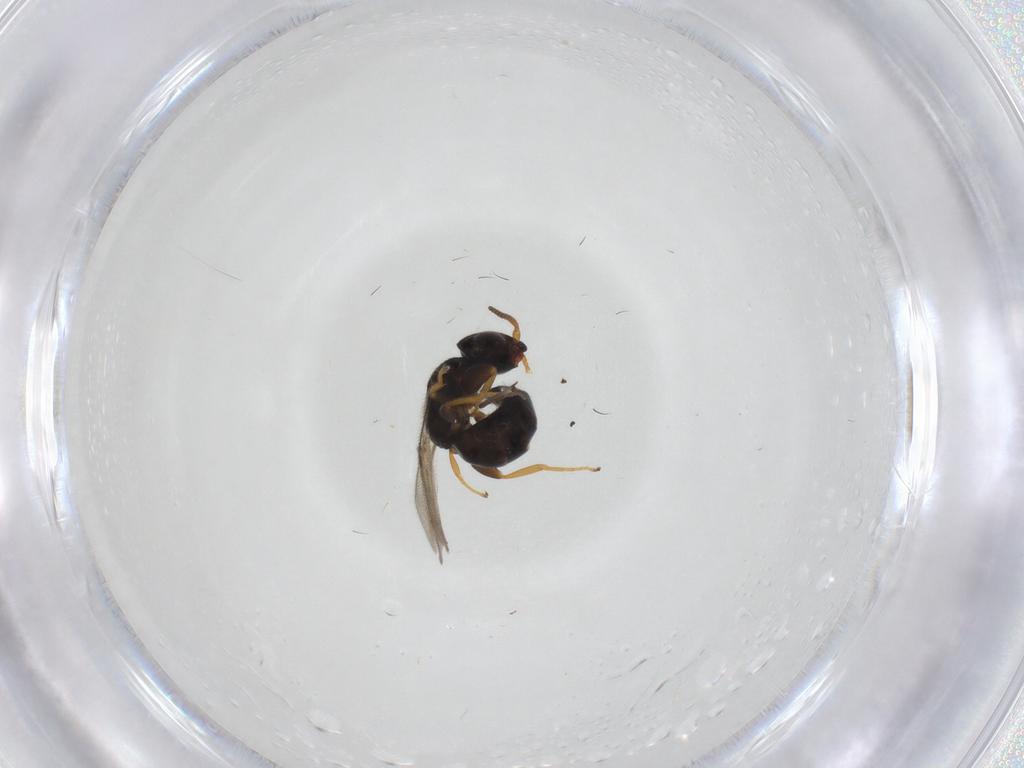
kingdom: Animalia
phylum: Arthropoda
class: Insecta
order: Hymenoptera
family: Bethylidae
